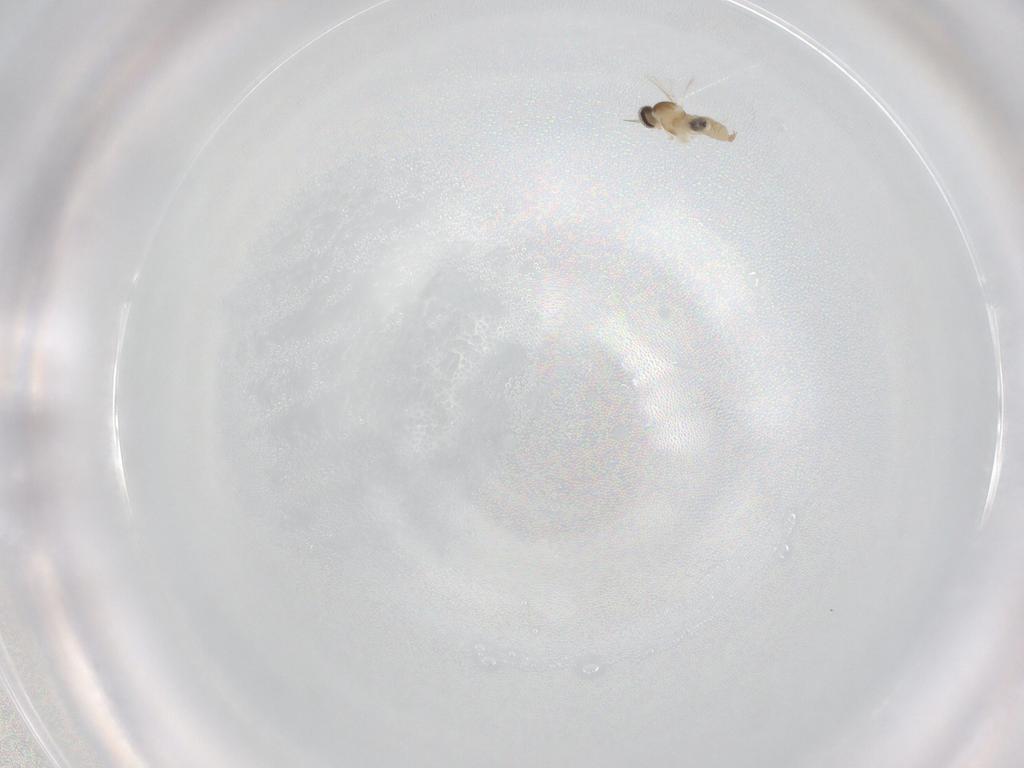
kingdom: Animalia
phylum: Arthropoda
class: Insecta
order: Diptera
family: Cecidomyiidae
